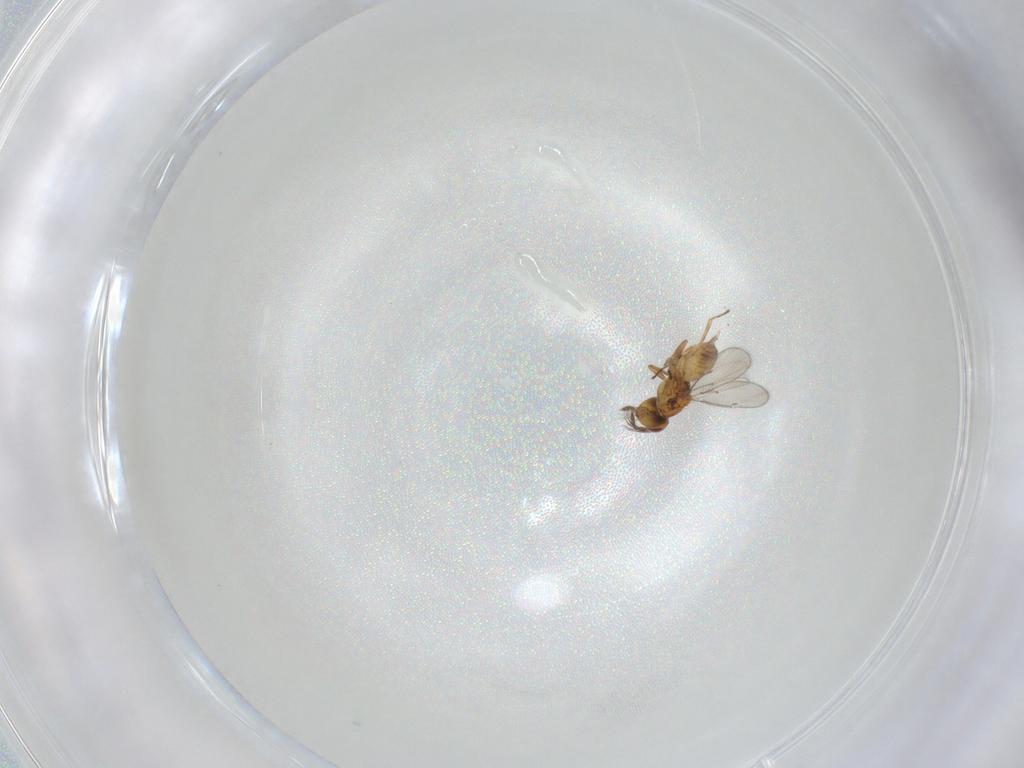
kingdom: Animalia
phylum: Arthropoda
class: Insecta
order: Hymenoptera
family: Eulophidae
